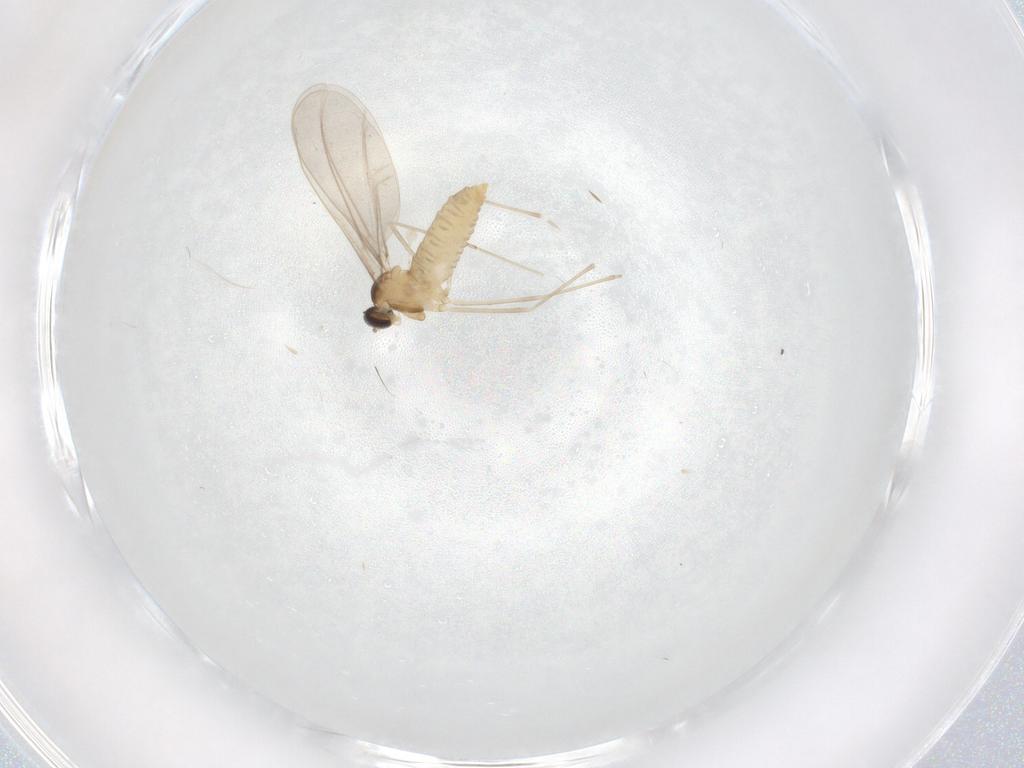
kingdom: Animalia
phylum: Arthropoda
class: Insecta
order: Diptera
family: Cecidomyiidae
